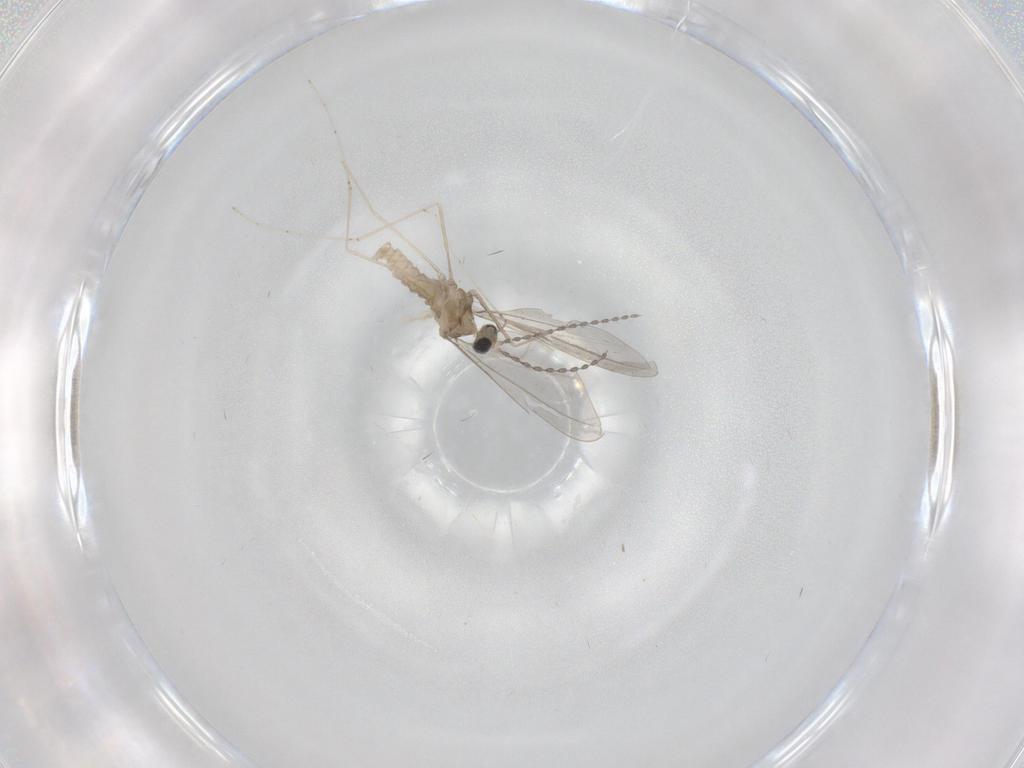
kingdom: Animalia
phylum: Arthropoda
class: Insecta
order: Diptera
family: Cecidomyiidae
